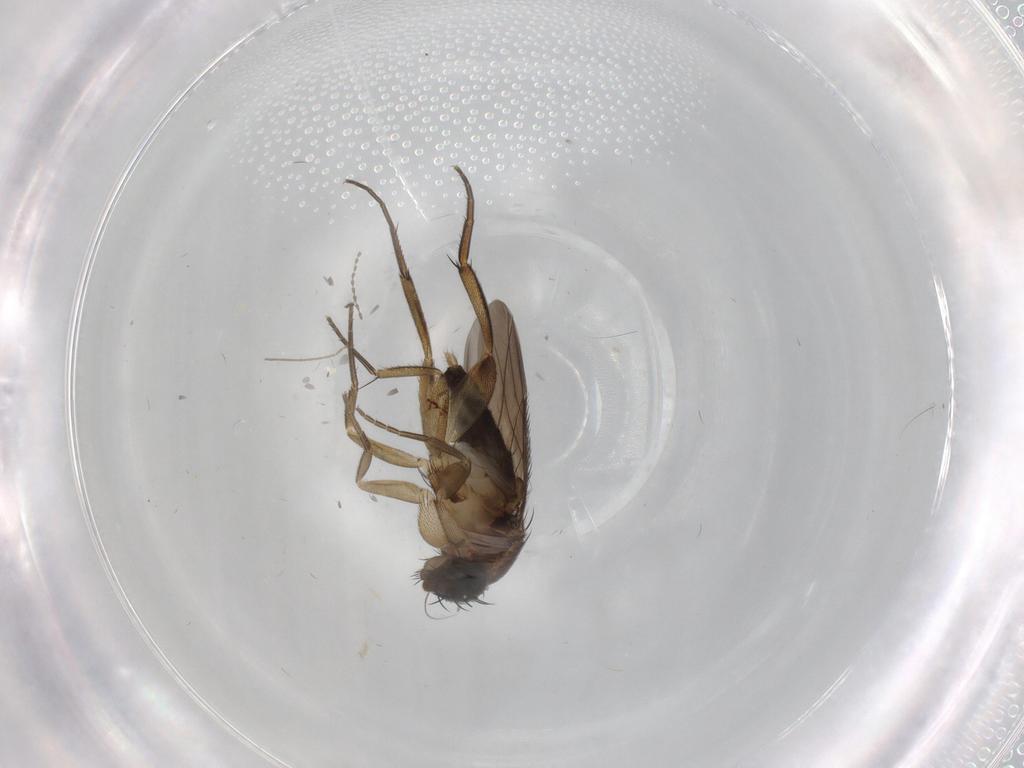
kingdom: Animalia
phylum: Arthropoda
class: Insecta
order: Diptera
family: Phoridae
